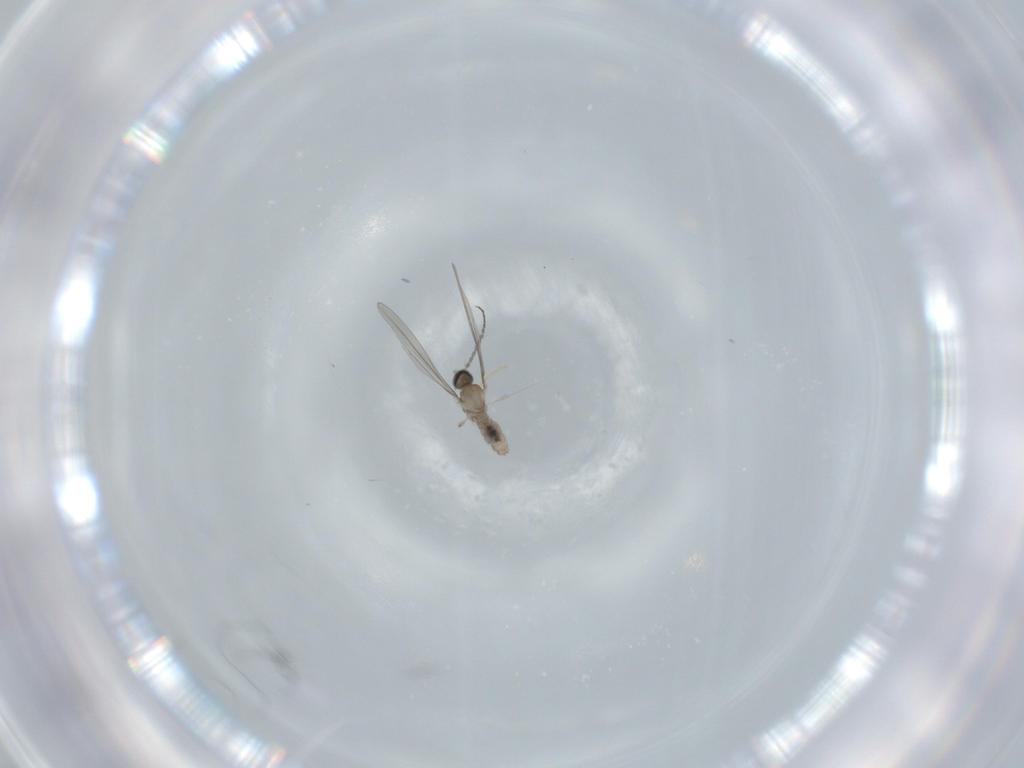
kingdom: Animalia
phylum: Arthropoda
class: Insecta
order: Diptera
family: Cecidomyiidae
